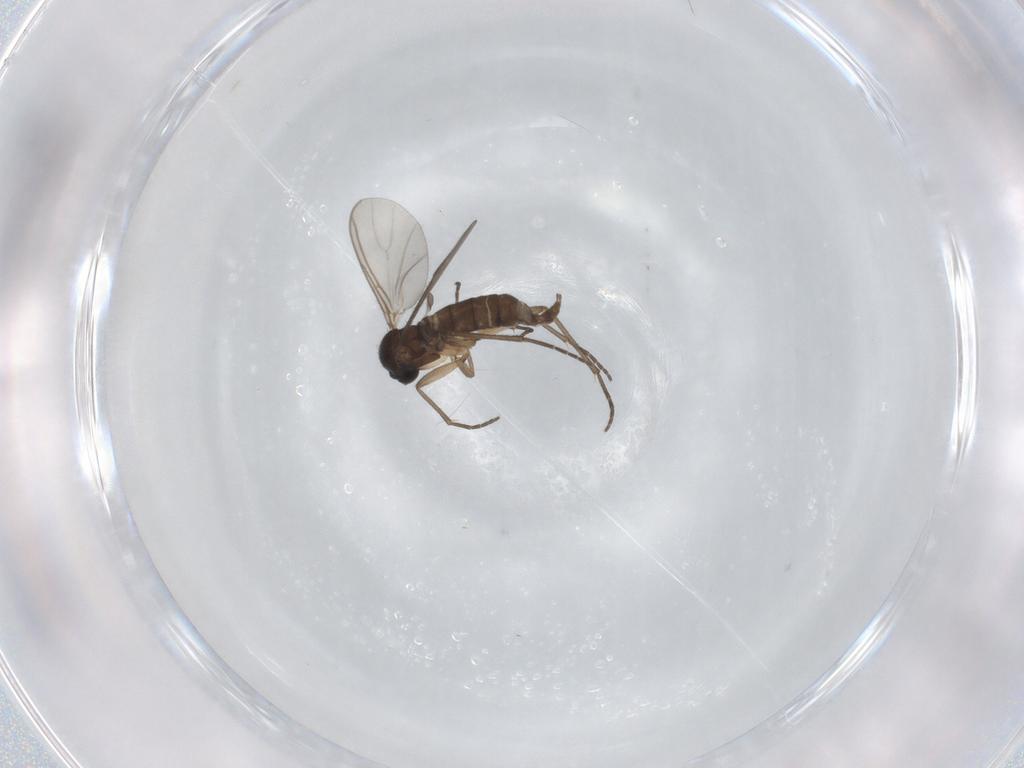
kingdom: Animalia
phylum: Arthropoda
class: Insecta
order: Diptera
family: Sciaridae
